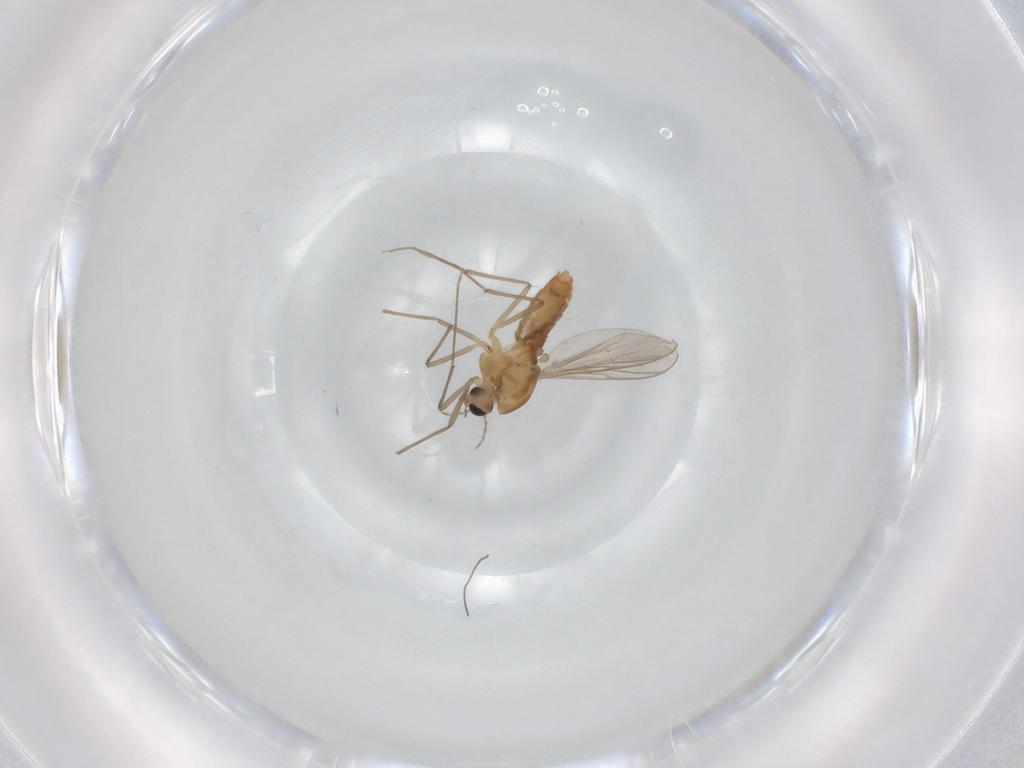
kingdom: Animalia
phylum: Arthropoda
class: Insecta
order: Diptera
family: Chironomidae
